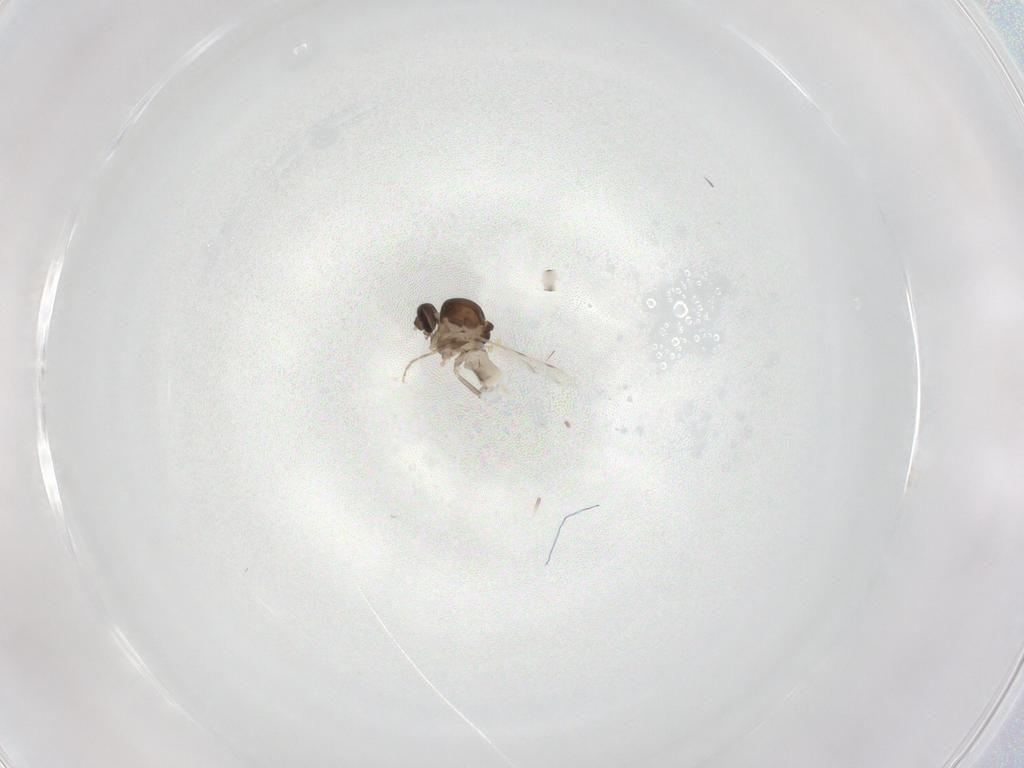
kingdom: Animalia
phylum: Arthropoda
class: Insecta
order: Diptera
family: Ceratopogonidae
